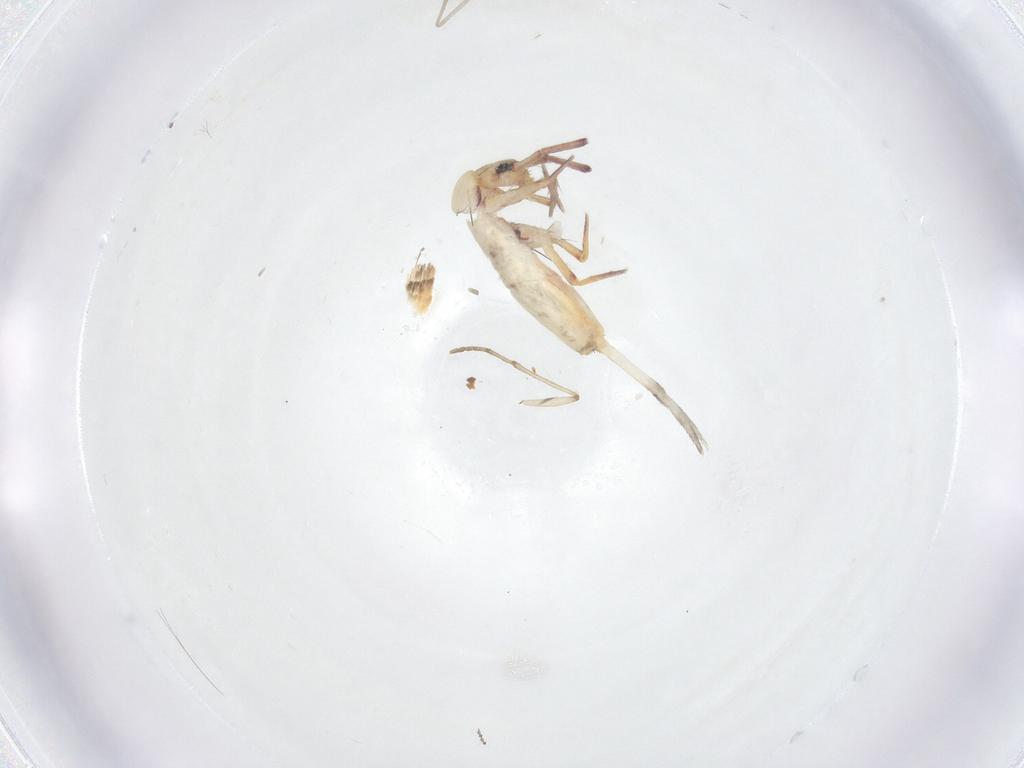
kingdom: Animalia
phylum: Arthropoda
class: Collembola
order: Entomobryomorpha
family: Paronellidae
